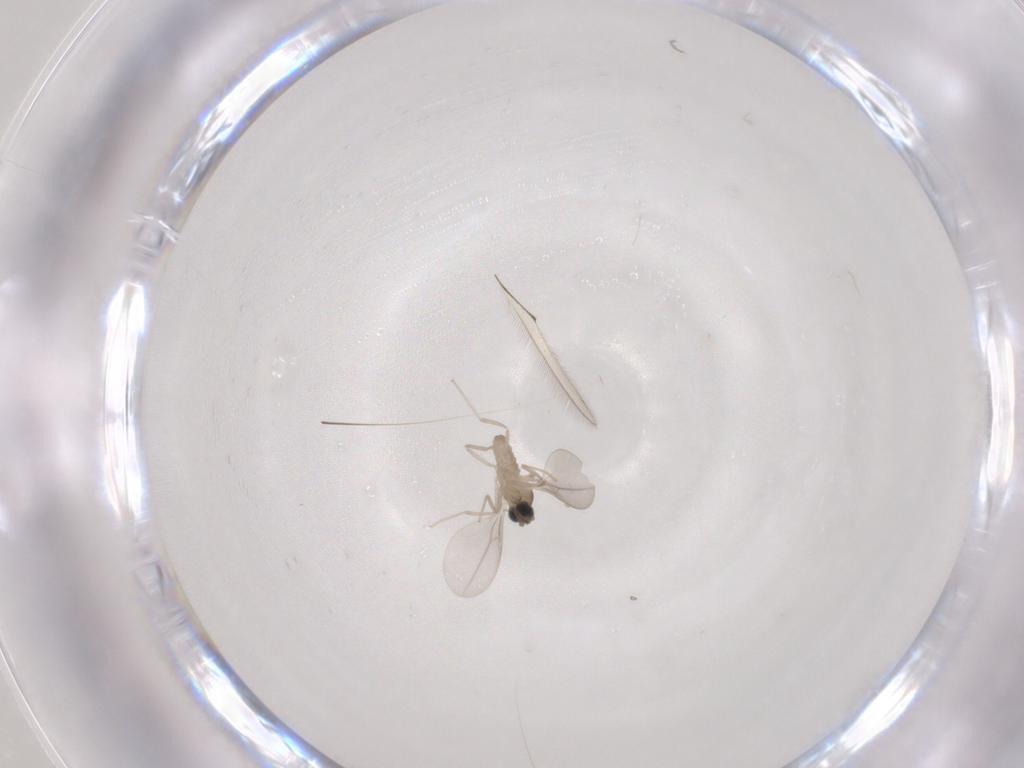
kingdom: Animalia
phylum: Arthropoda
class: Insecta
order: Diptera
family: Cecidomyiidae
